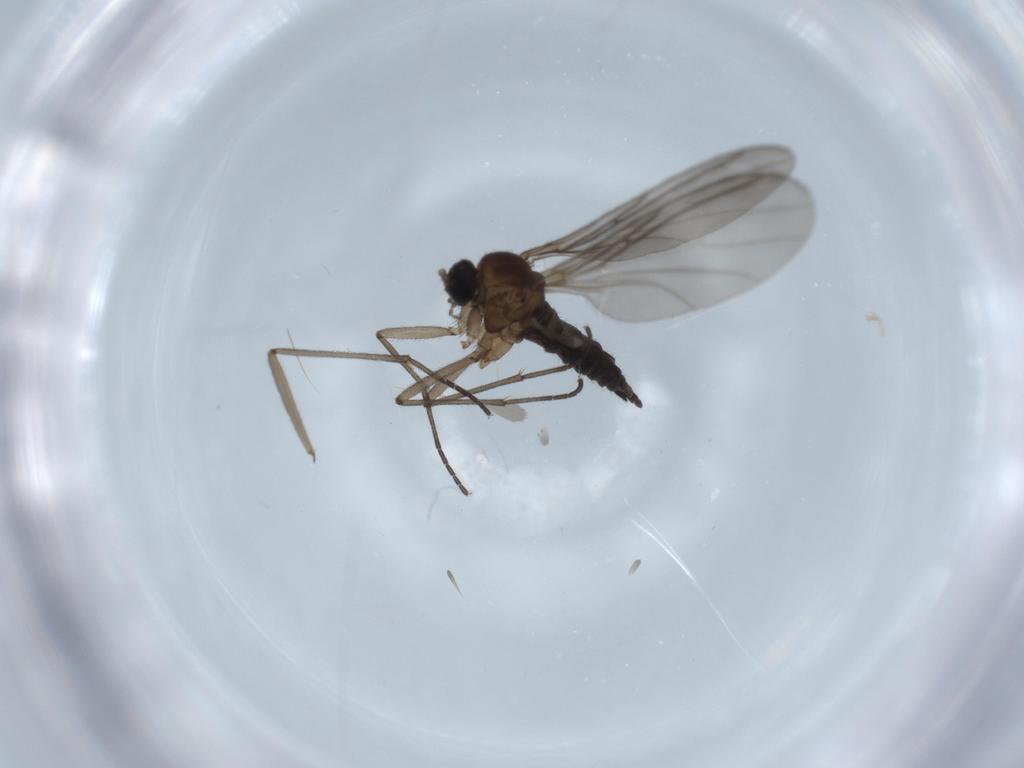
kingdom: Animalia
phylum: Arthropoda
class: Insecta
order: Diptera
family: Sciaridae
